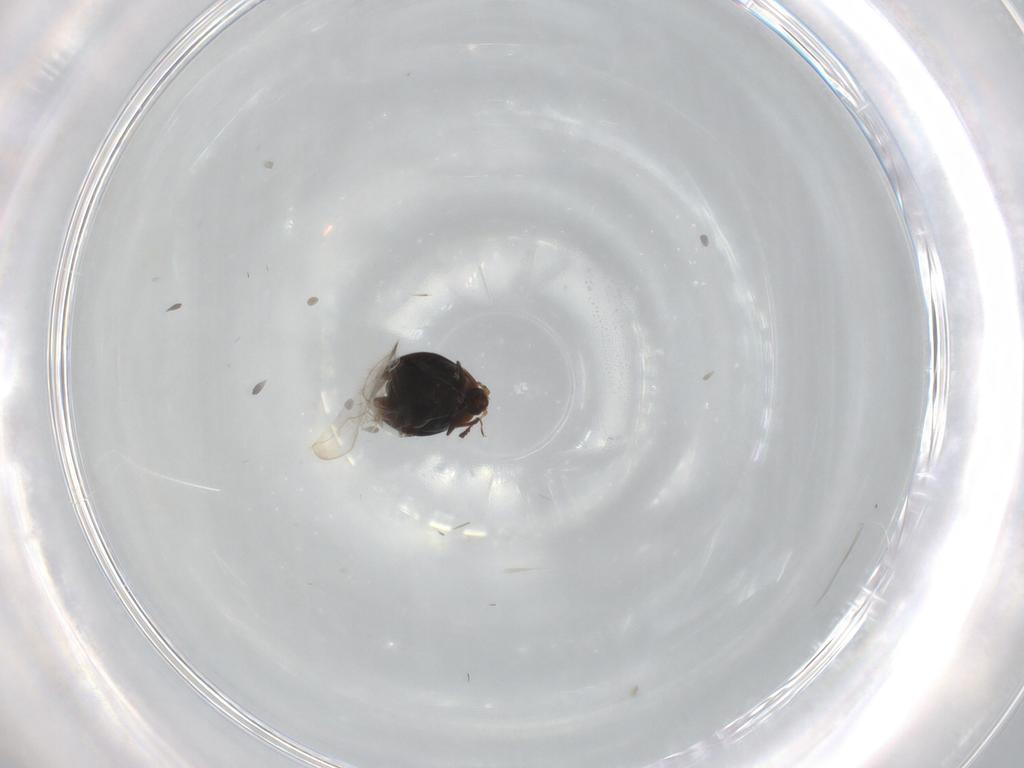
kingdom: Animalia
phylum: Arthropoda
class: Insecta
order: Coleoptera
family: Corylophidae
